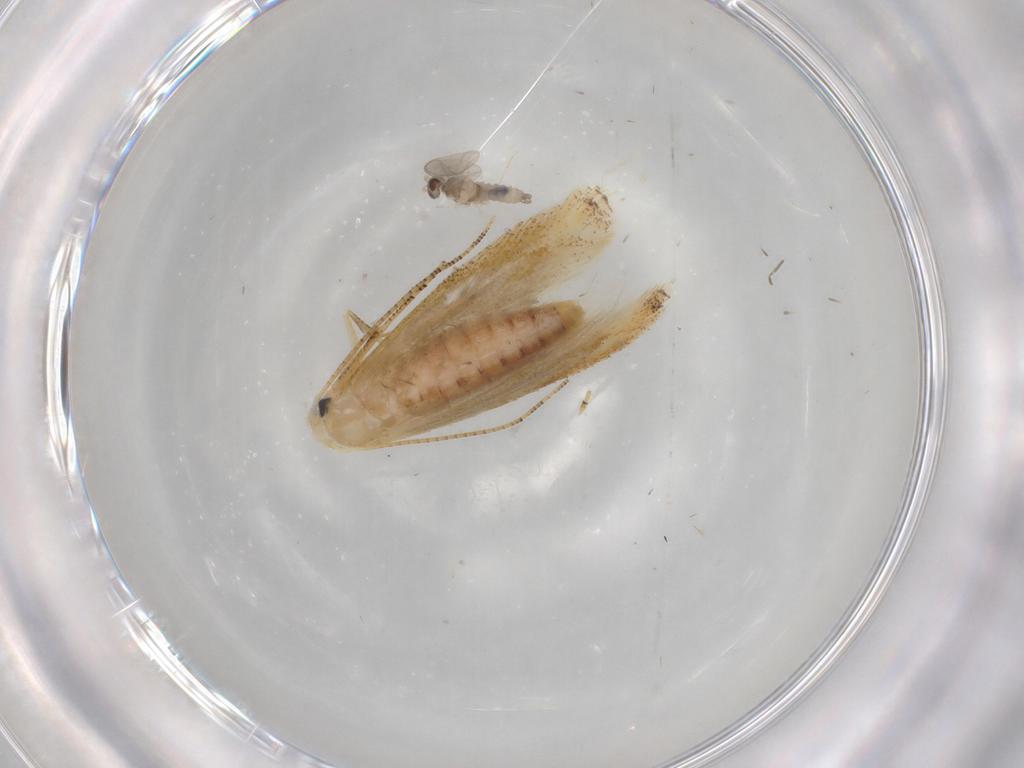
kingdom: Animalia
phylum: Arthropoda
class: Insecta
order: Lepidoptera
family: Bucculatricidae
